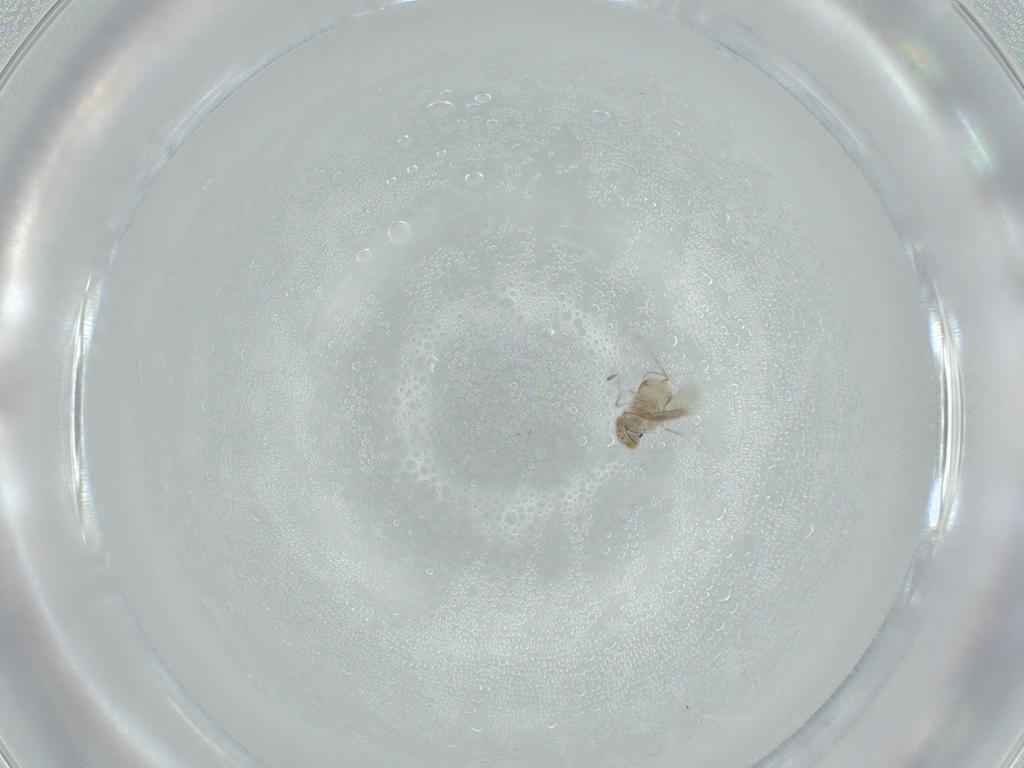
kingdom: Animalia
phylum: Arthropoda
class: Insecta
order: Hymenoptera
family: Aphelinidae
